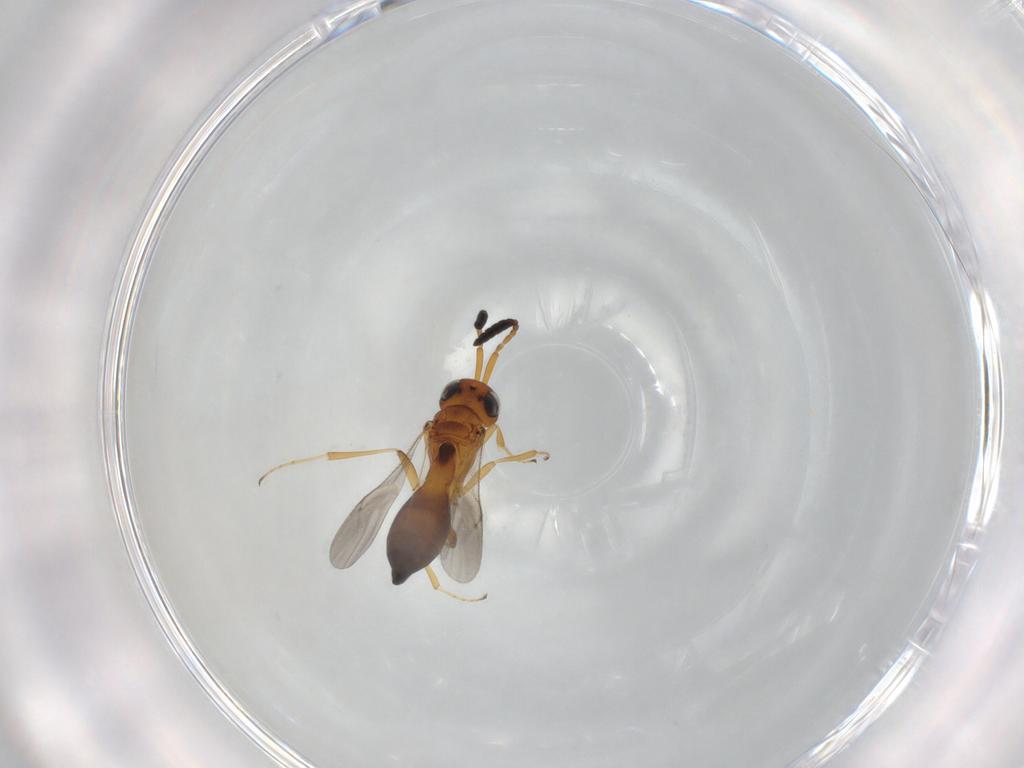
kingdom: Animalia
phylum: Arthropoda
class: Insecta
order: Hymenoptera
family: Scelionidae
